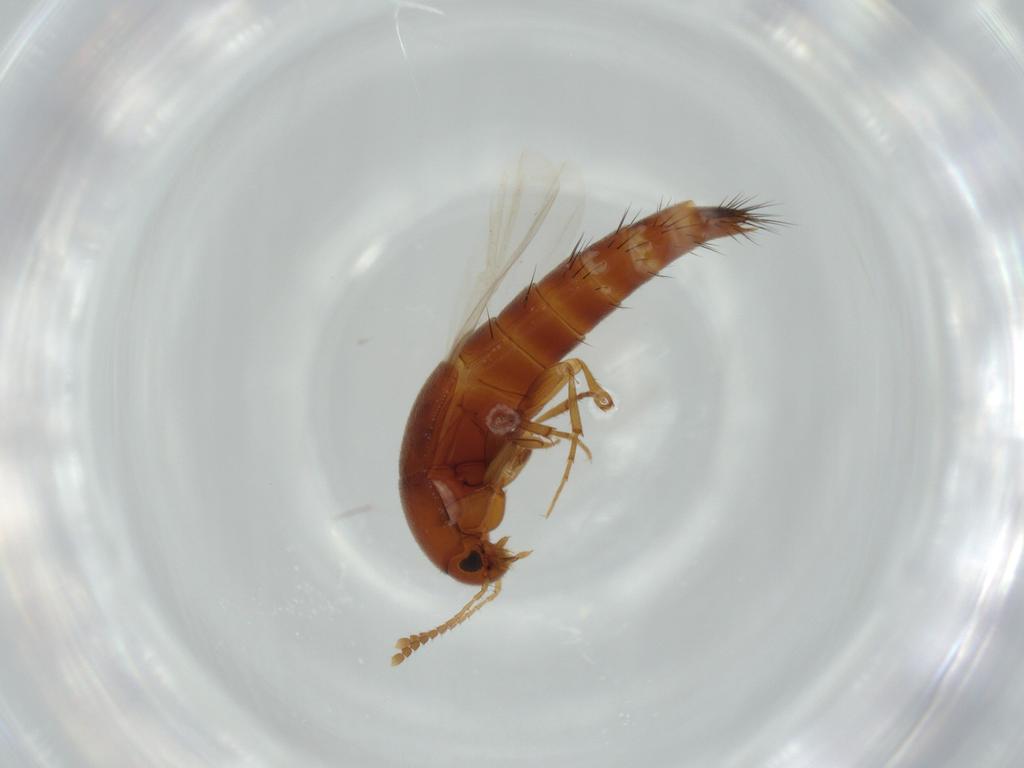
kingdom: Animalia
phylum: Arthropoda
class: Insecta
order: Coleoptera
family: Staphylinidae
